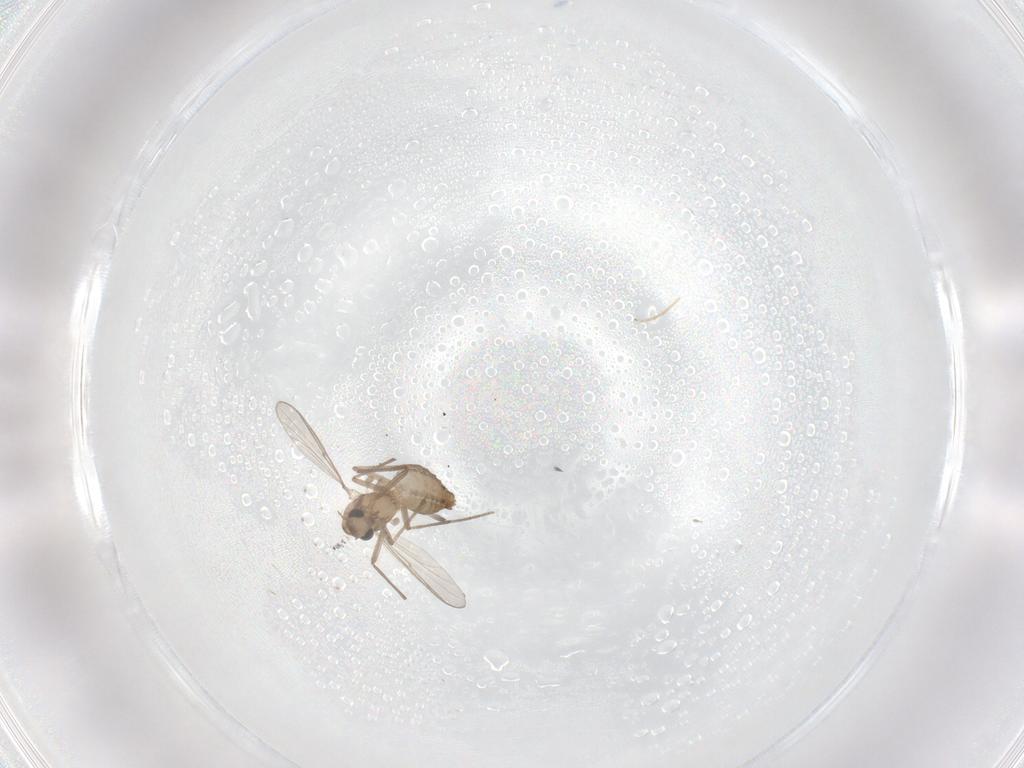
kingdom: Animalia
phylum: Arthropoda
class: Insecta
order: Diptera
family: Chironomidae
